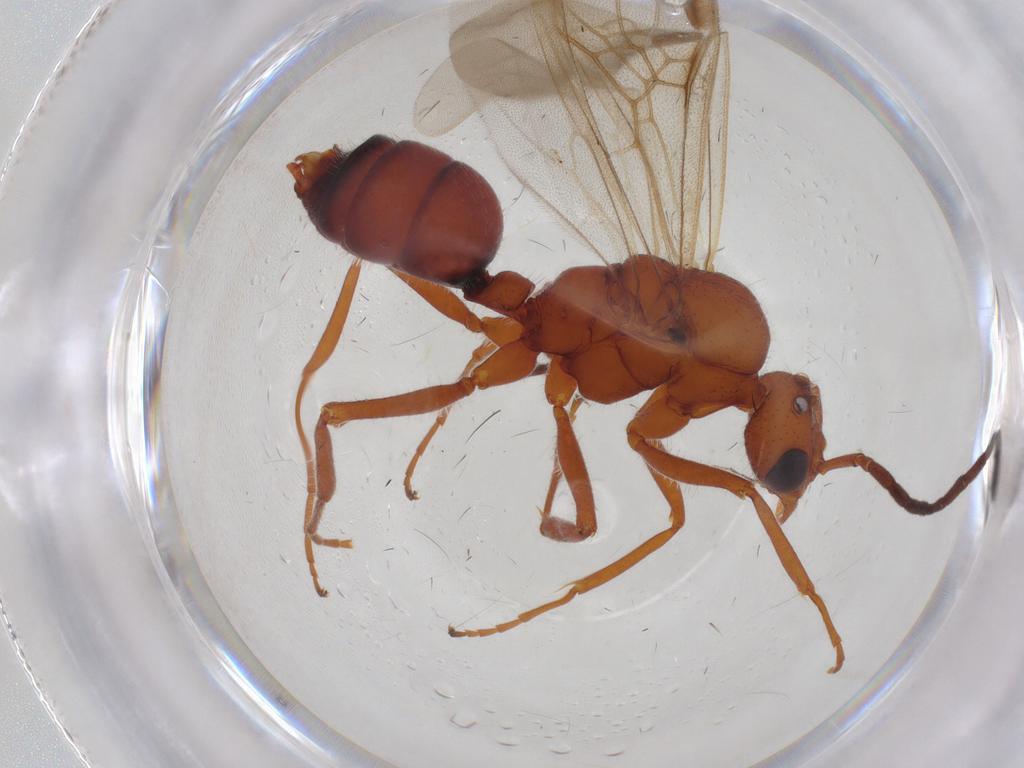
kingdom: Animalia
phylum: Arthropoda
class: Insecta
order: Hymenoptera
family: Formicidae
